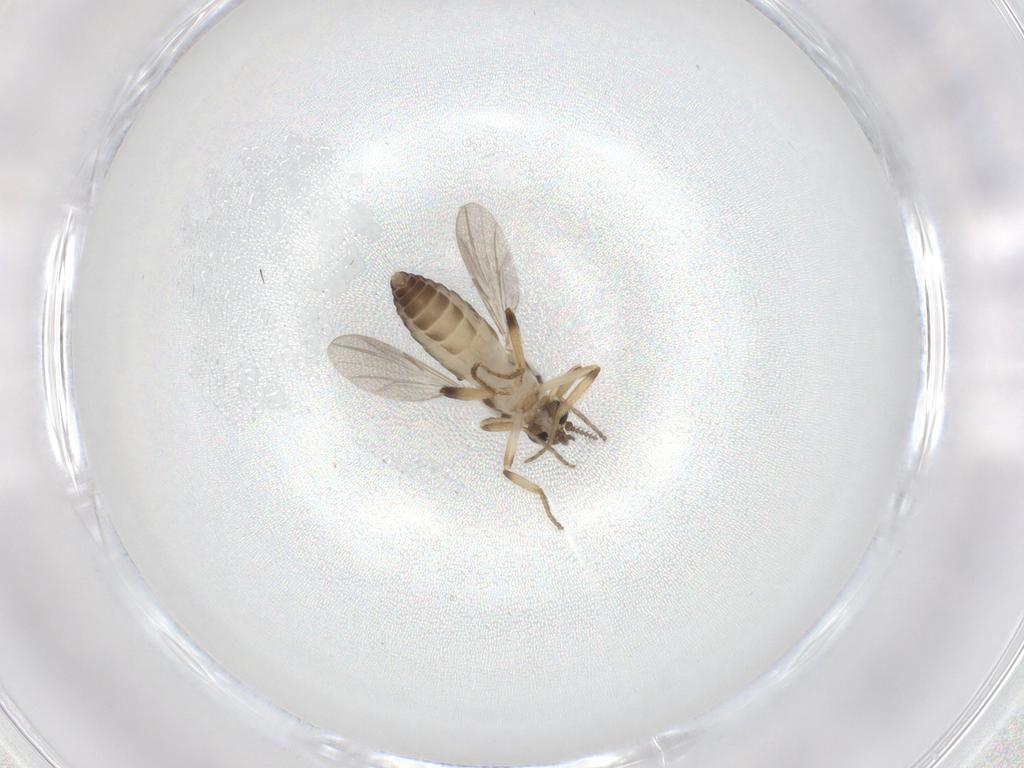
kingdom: Animalia
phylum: Arthropoda
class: Insecta
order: Diptera
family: Ceratopogonidae
